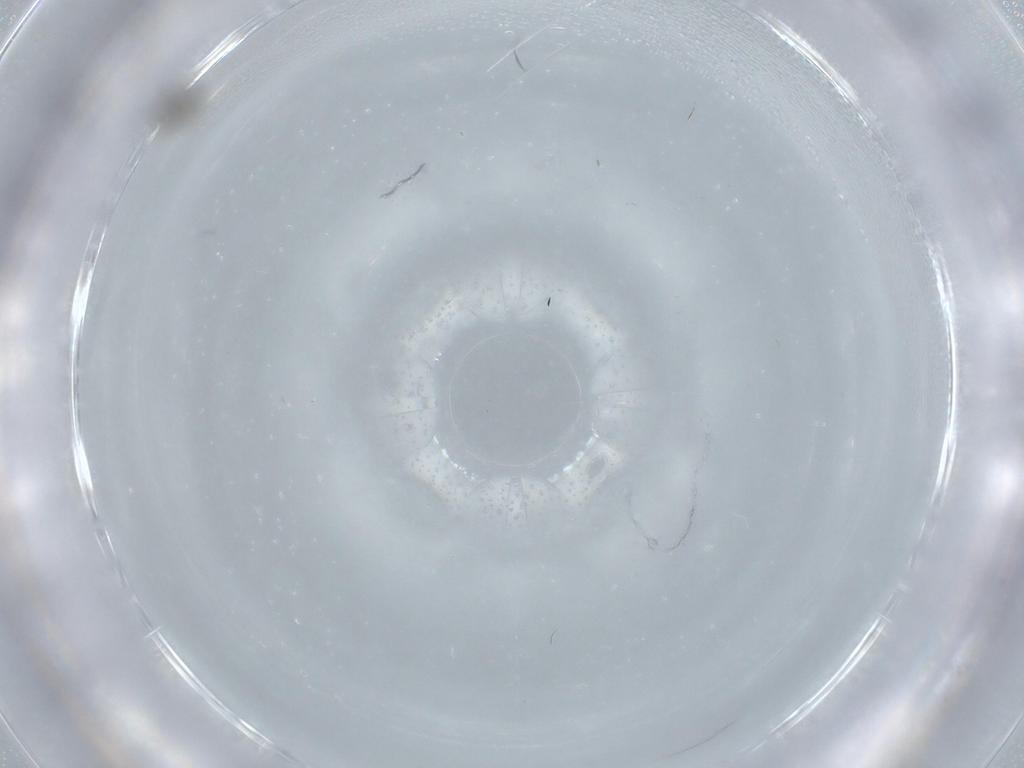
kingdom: Animalia
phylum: Arthropoda
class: Insecta
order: Hymenoptera
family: Platygastridae
